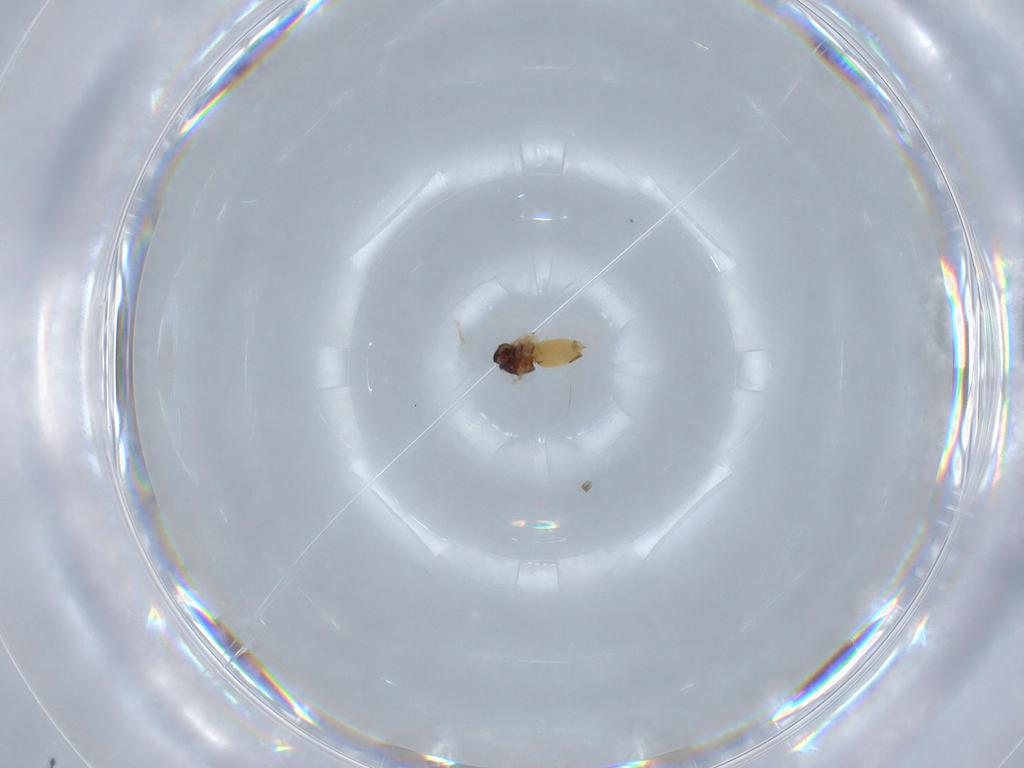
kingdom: Animalia
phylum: Arthropoda
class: Insecta
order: Hemiptera
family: Aleyrodidae
